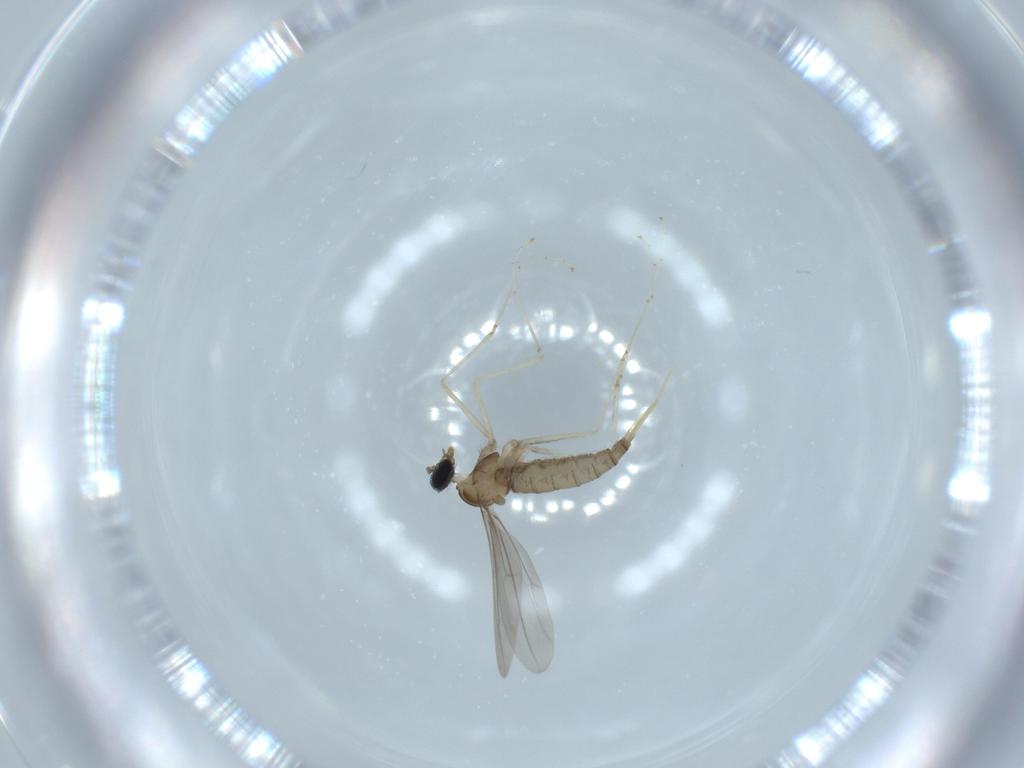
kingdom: Animalia
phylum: Arthropoda
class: Insecta
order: Diptera
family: Cecidomyiidae
